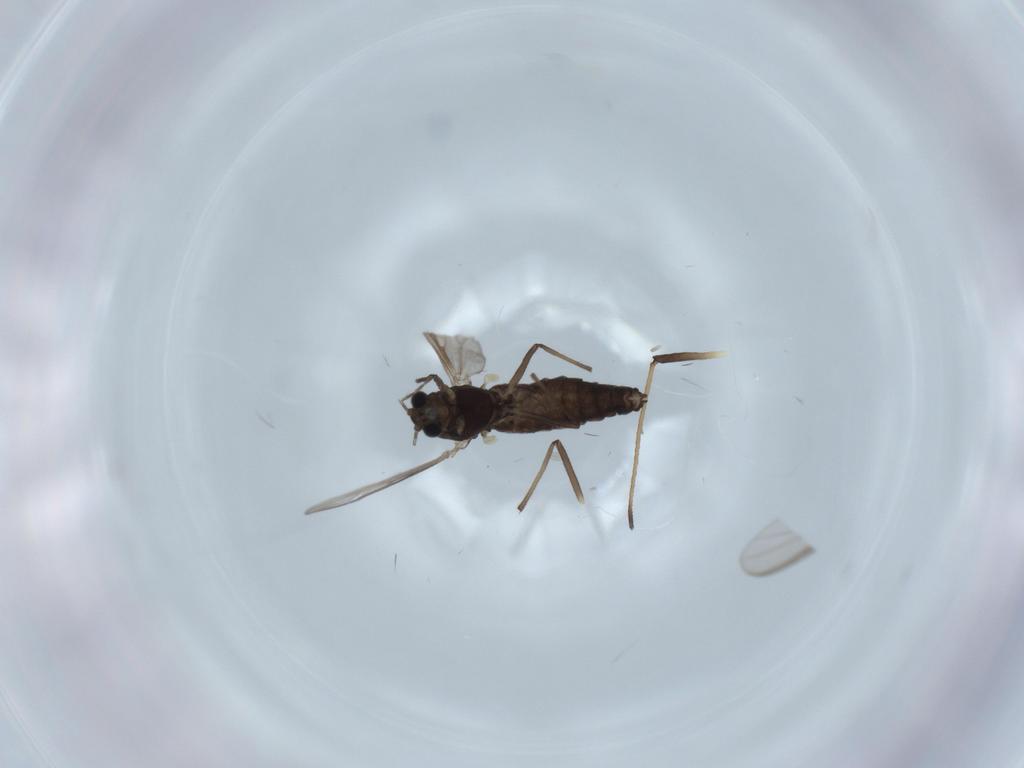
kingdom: Animalia
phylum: Arthropoda
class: Insecta
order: Diptera
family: Chironomidae
